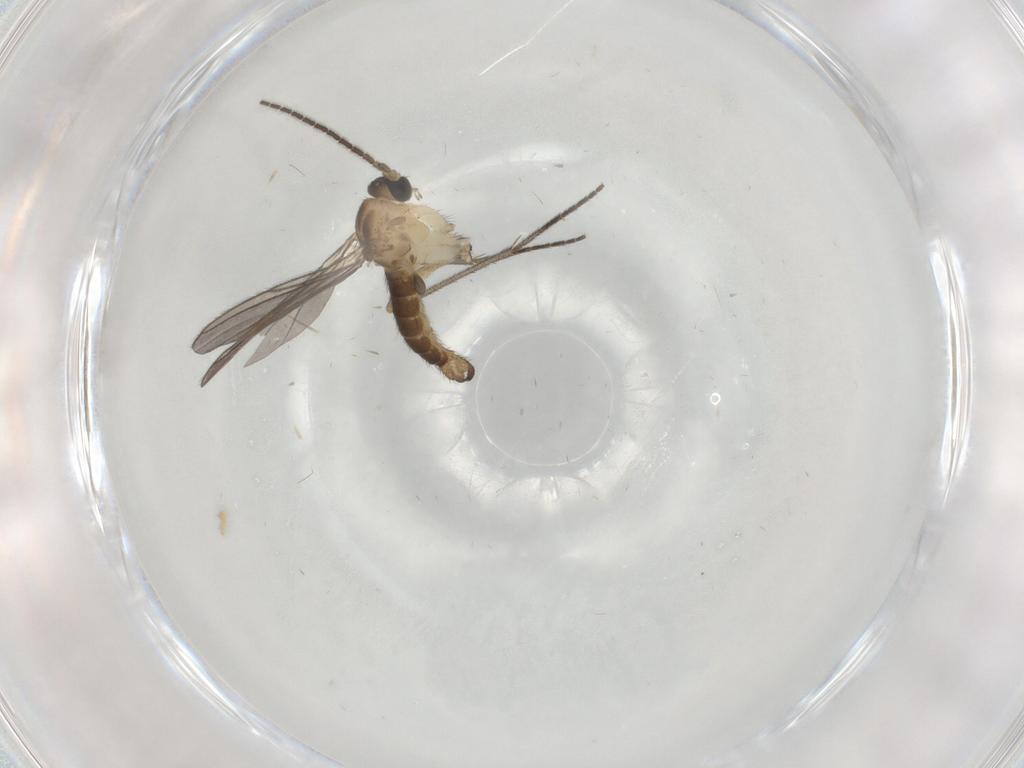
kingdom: Animalia
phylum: Arthropoda
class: Insecta
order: Diptera
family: Sciaridae
